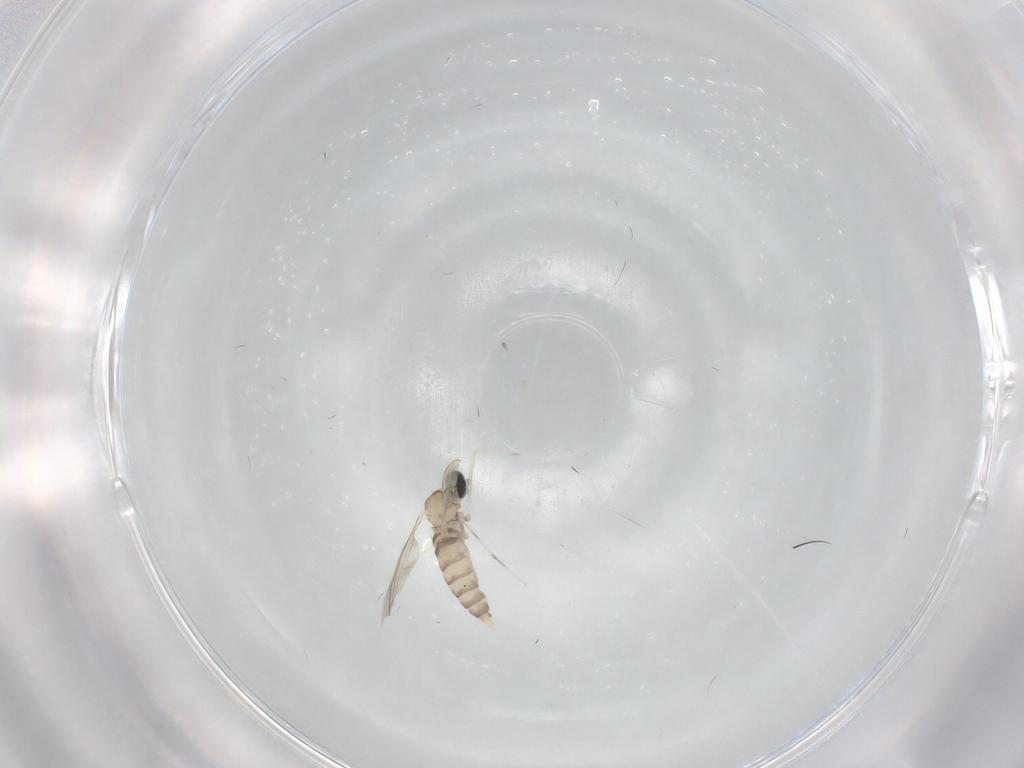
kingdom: Animalia
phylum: Arthropoda
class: Insecta
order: Diptera
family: Cecidomyiidae
